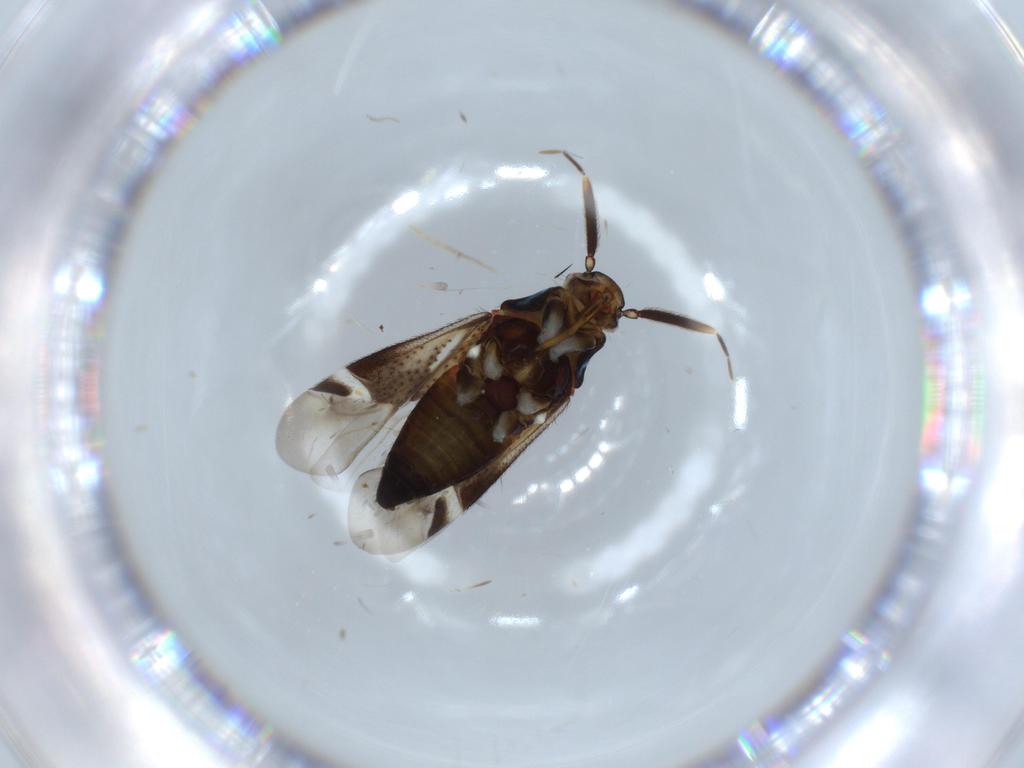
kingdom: Animalia
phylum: Arthropoda
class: Insecta
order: Hemiptera
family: Miridae
